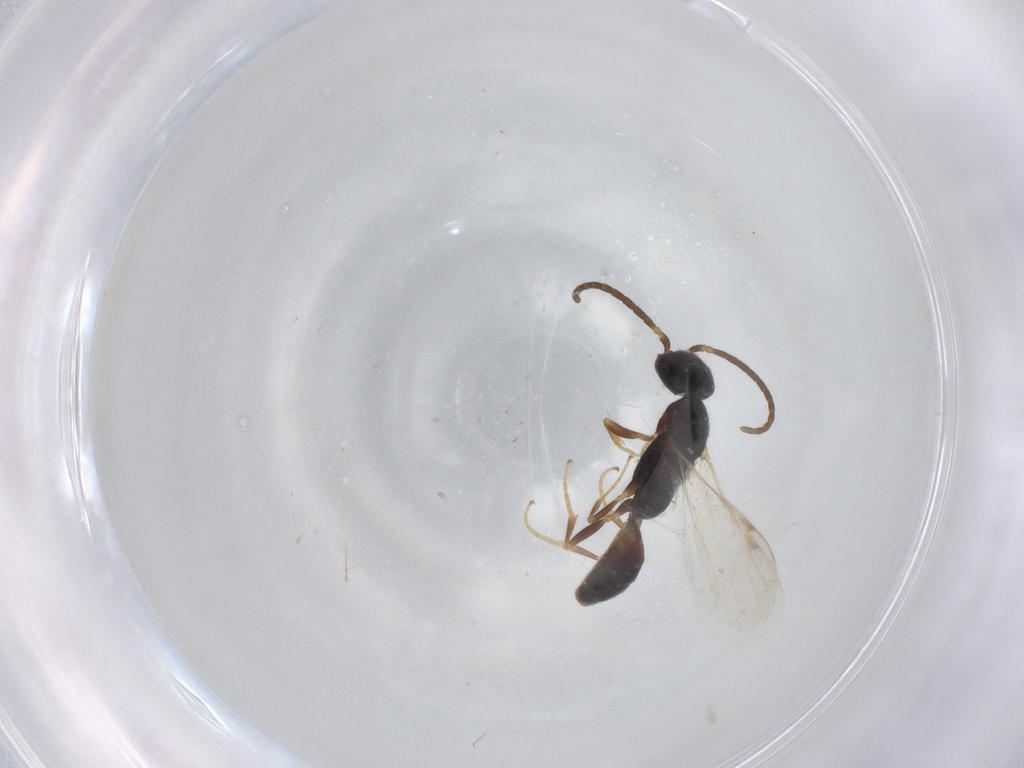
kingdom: Animalia
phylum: Arthropoda
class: Insecta
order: Hymenoptera
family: Bethylidae
